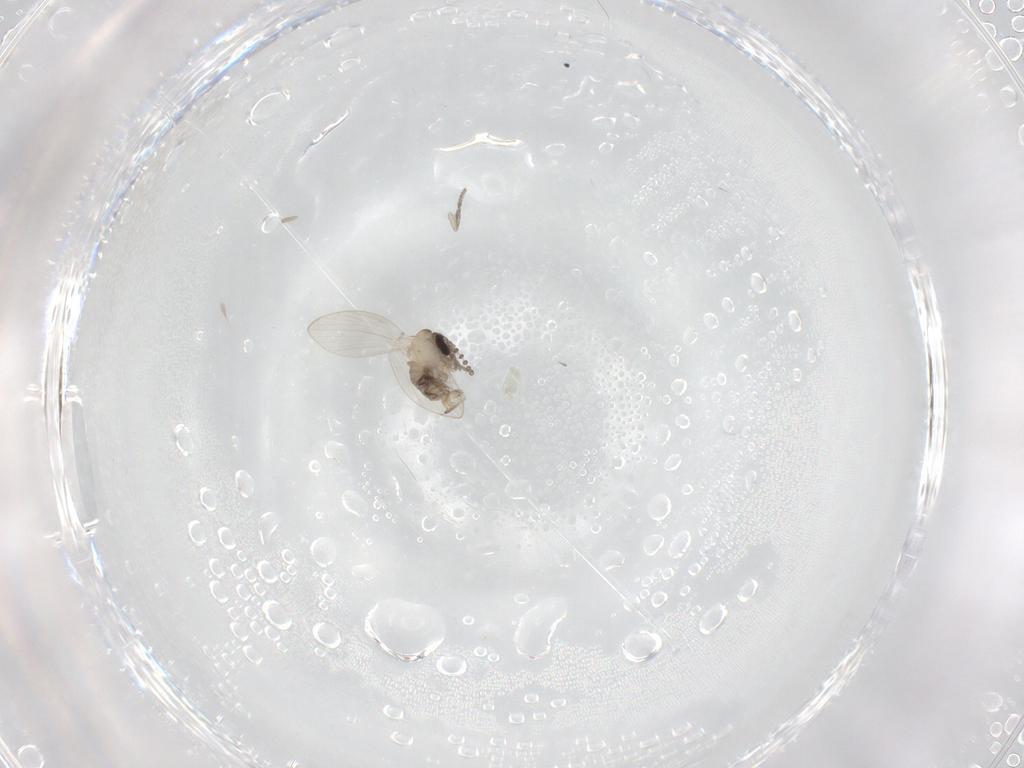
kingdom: Animalia
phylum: Arthropoda
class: Insecta
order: Diptera
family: Psychodidae
